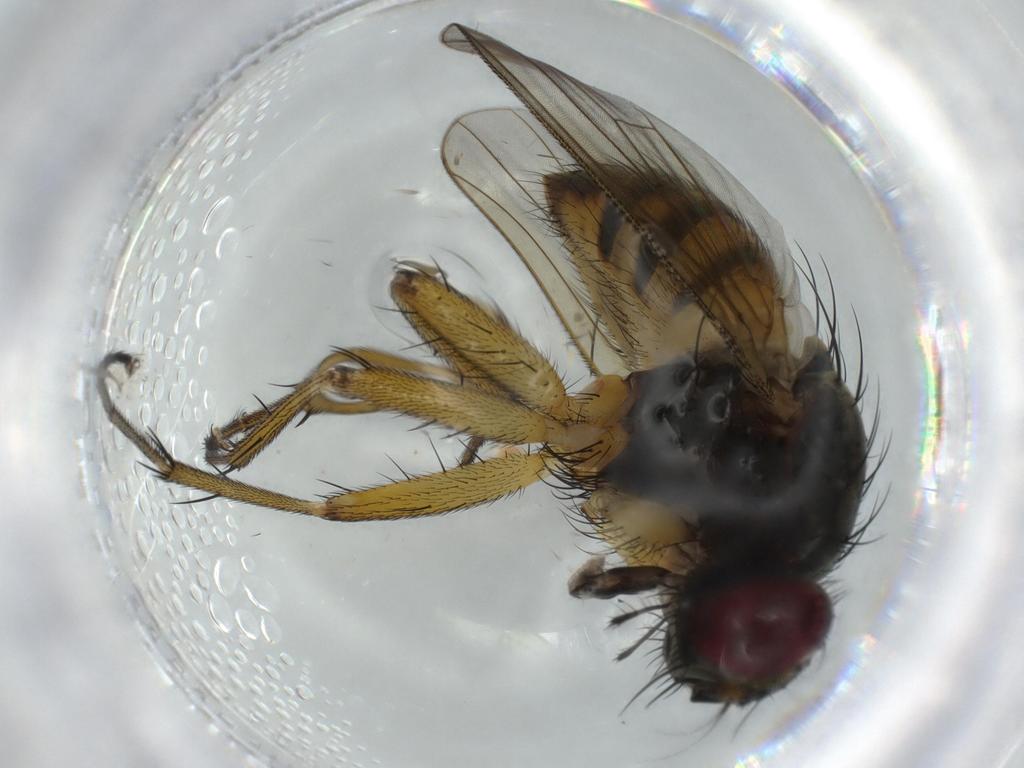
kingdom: Animalia
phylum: Arthropoda
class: Insecta
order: Diptera
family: Muscidae
